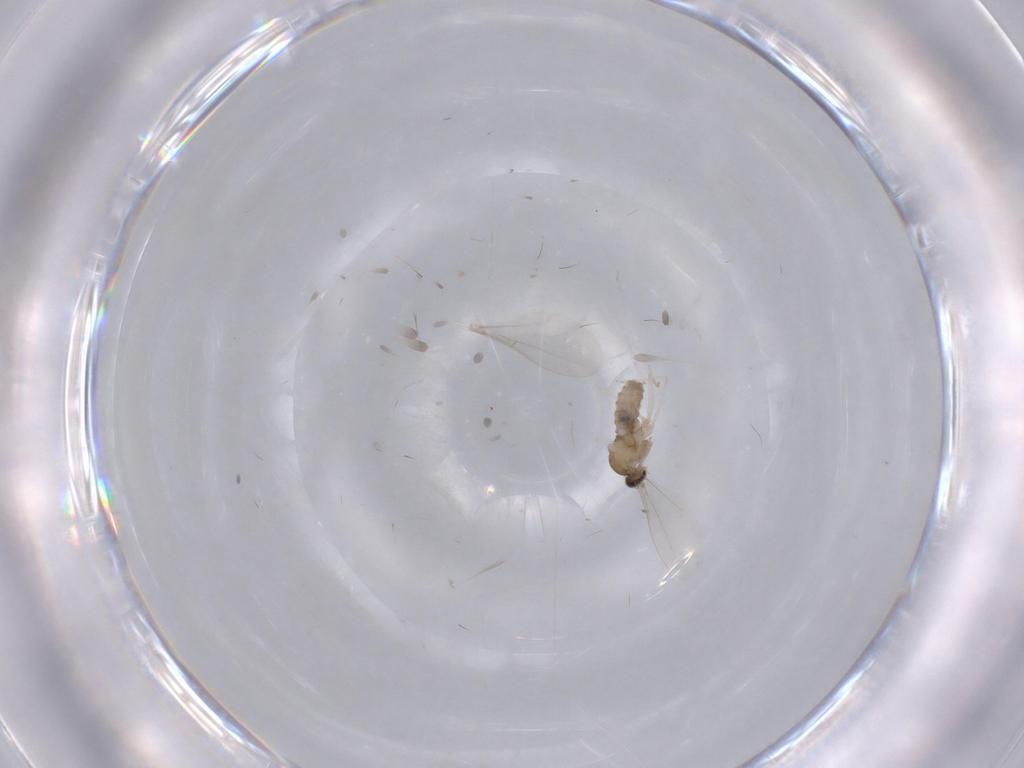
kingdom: Animalia
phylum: Arthropoda
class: Insecta
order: Diptera
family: Cecidomyiidae
